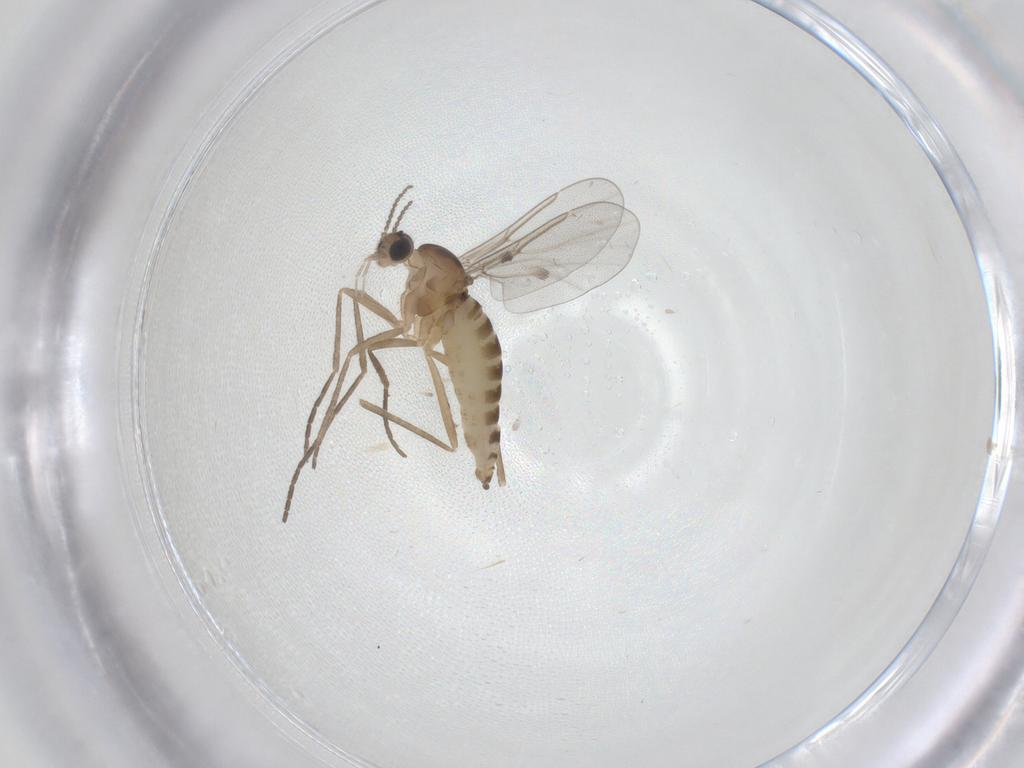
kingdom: Animalia
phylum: Arthropoda
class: Insecta
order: Diptera
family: Cecidomyiidae
